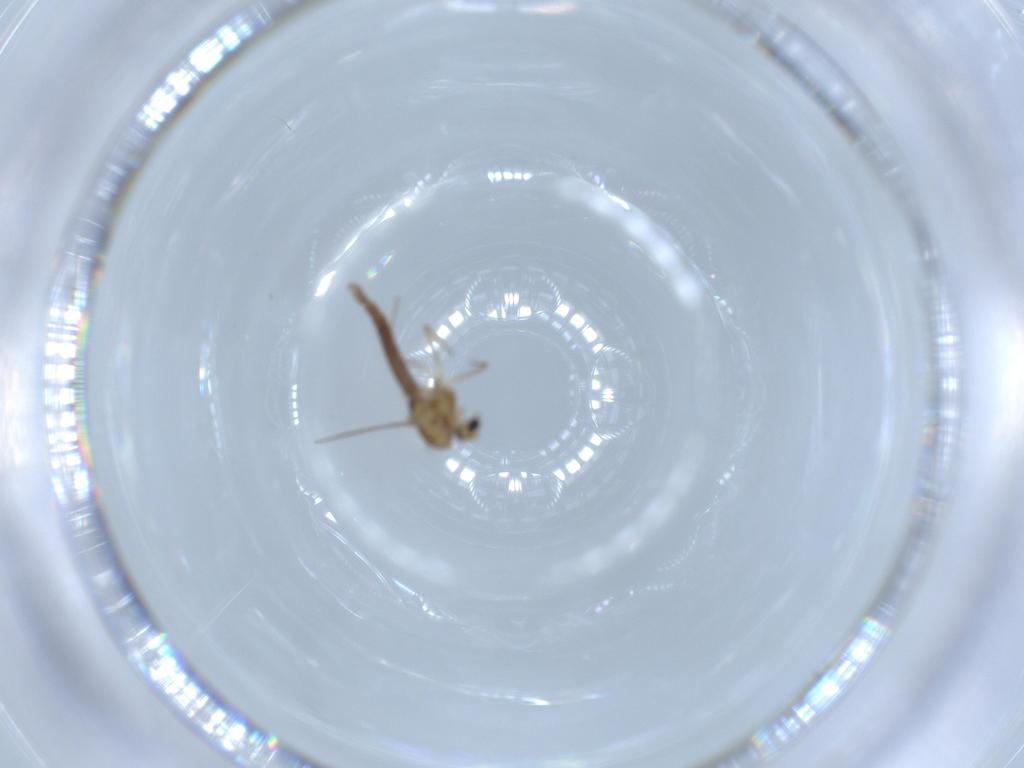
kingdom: Animalia
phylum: Arthropoda
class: Insecta
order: Diptera
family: Chironomidae
